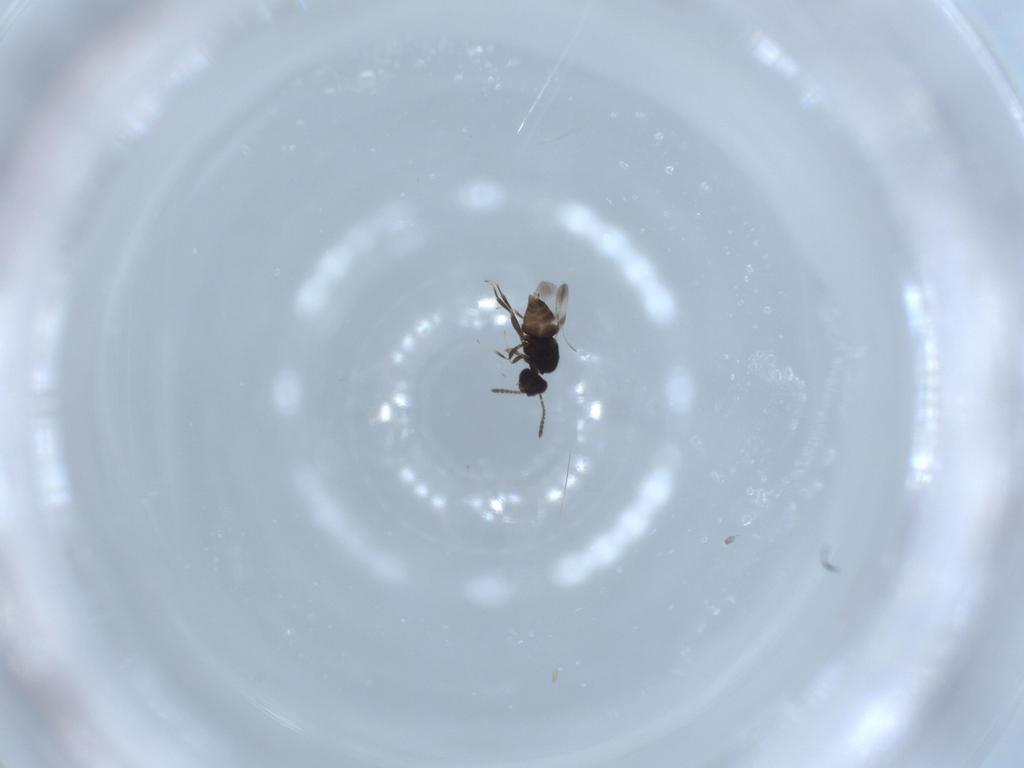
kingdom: Animalia
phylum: Arthropoda
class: Insecta
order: Hymenoptera
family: Ceraphronidae
